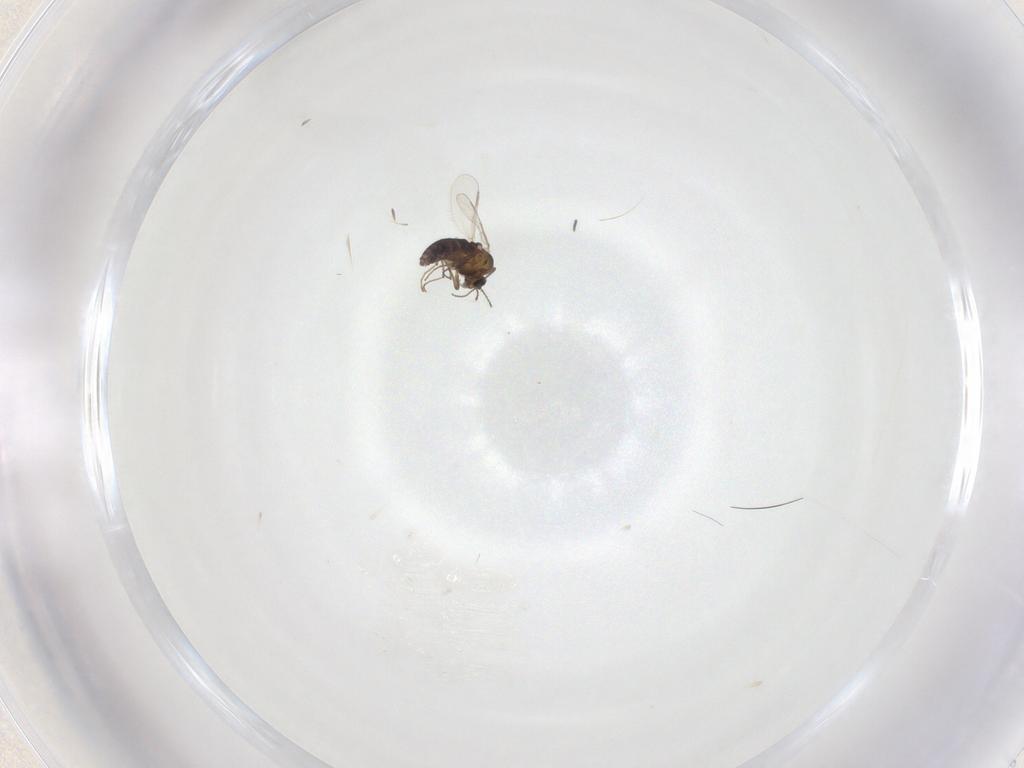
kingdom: Animalia
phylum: Arthropoda
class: Insecta
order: Diptera
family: Chironomidae
